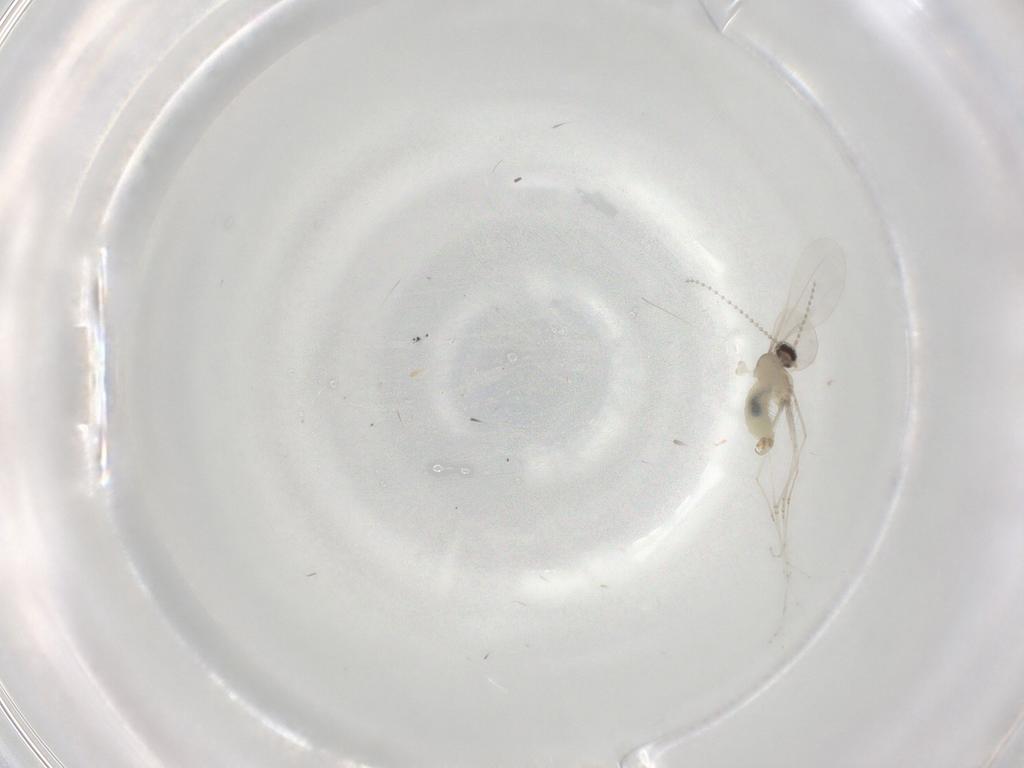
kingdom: Animalia
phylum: Arthropoda
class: Insecta
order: Diptera
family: Cecidomyiidae
